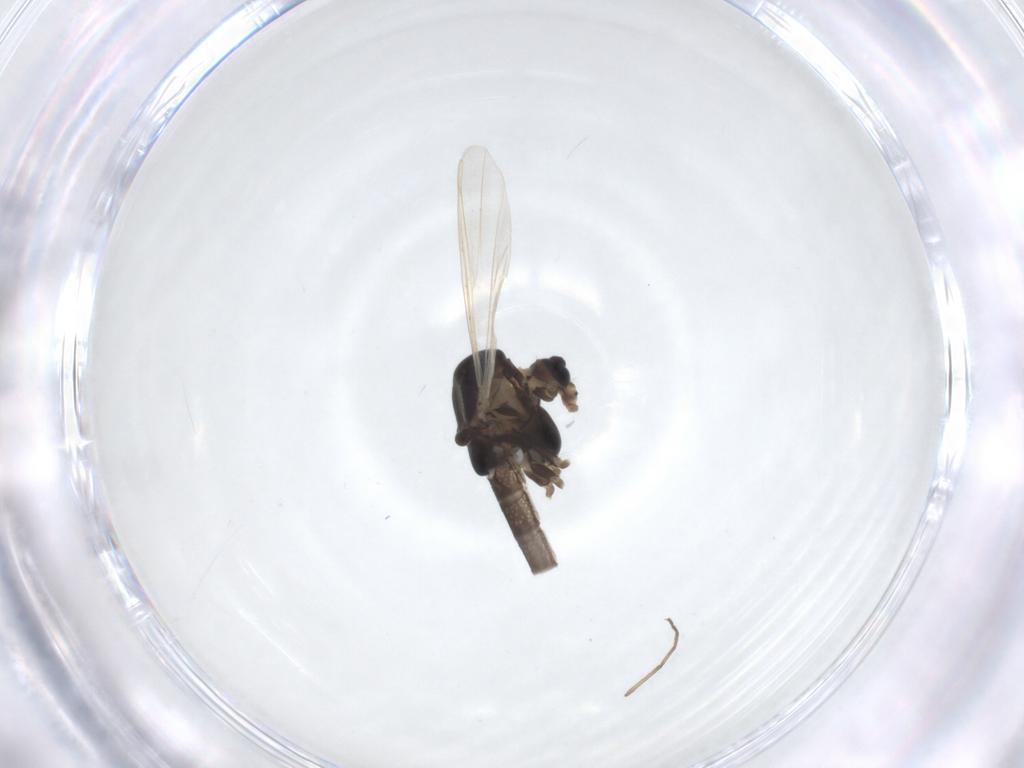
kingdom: Animalia
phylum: Arthropoda
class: Insecta
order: Diptera
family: Chironomidae
